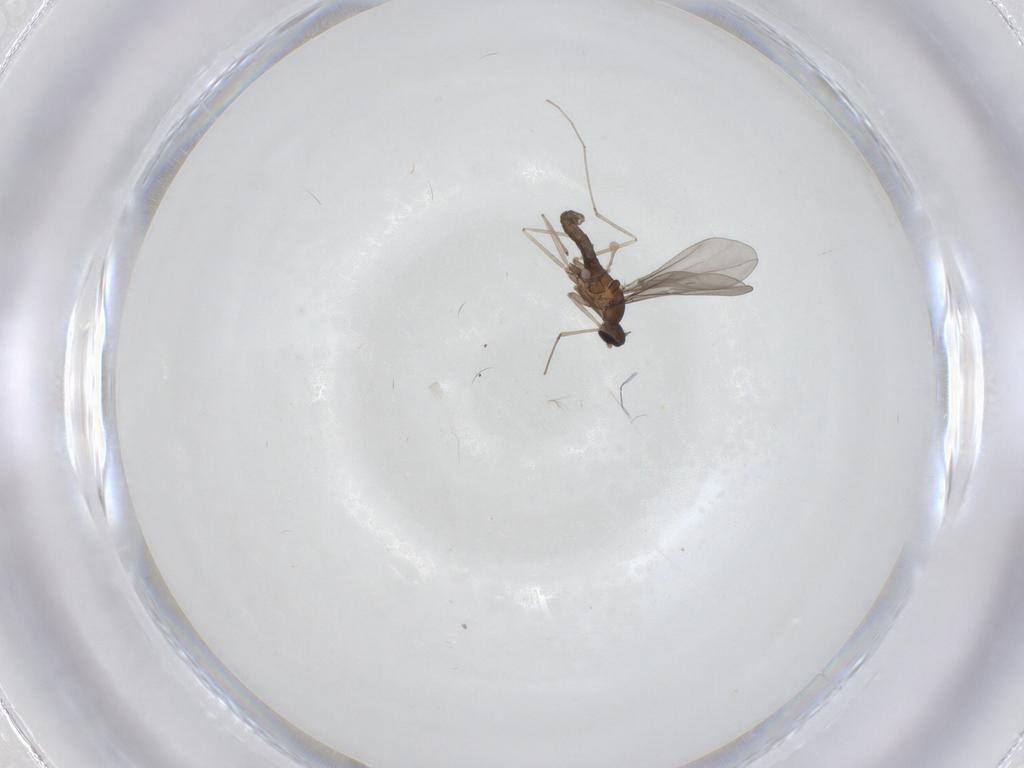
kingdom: Animalia
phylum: Arthropoda
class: Insecta
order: Diptera
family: Cecidomyiidae
